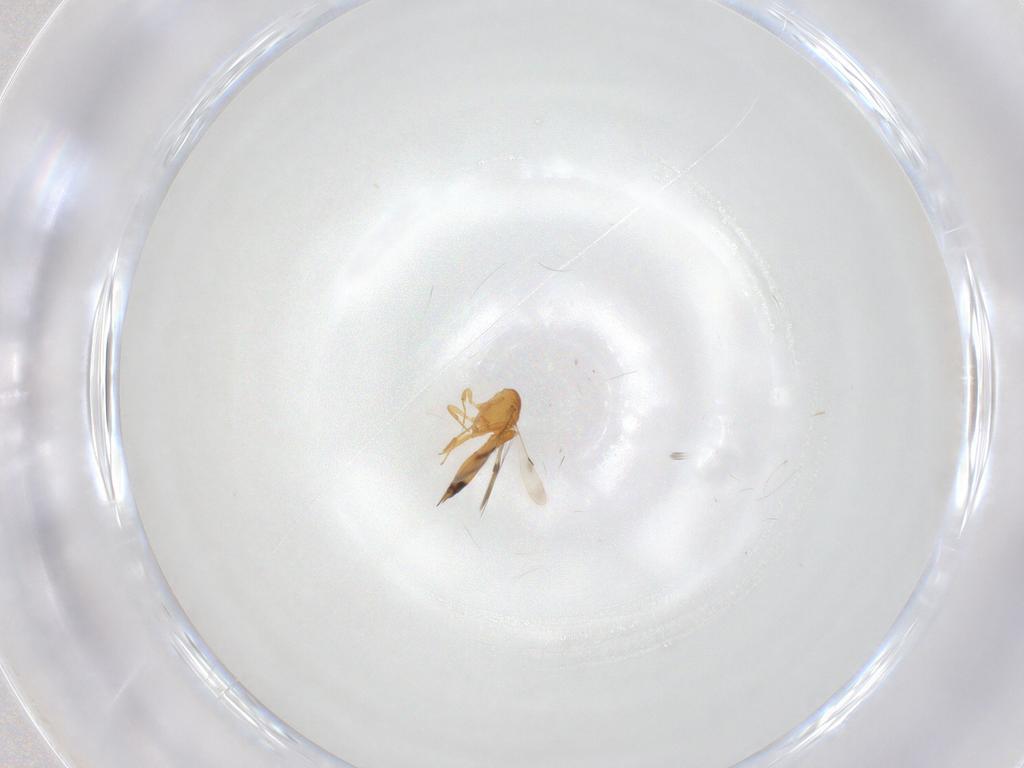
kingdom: Animalia
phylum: Arthropoda
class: Insecta
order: Hymenoptera
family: Scelionidae
